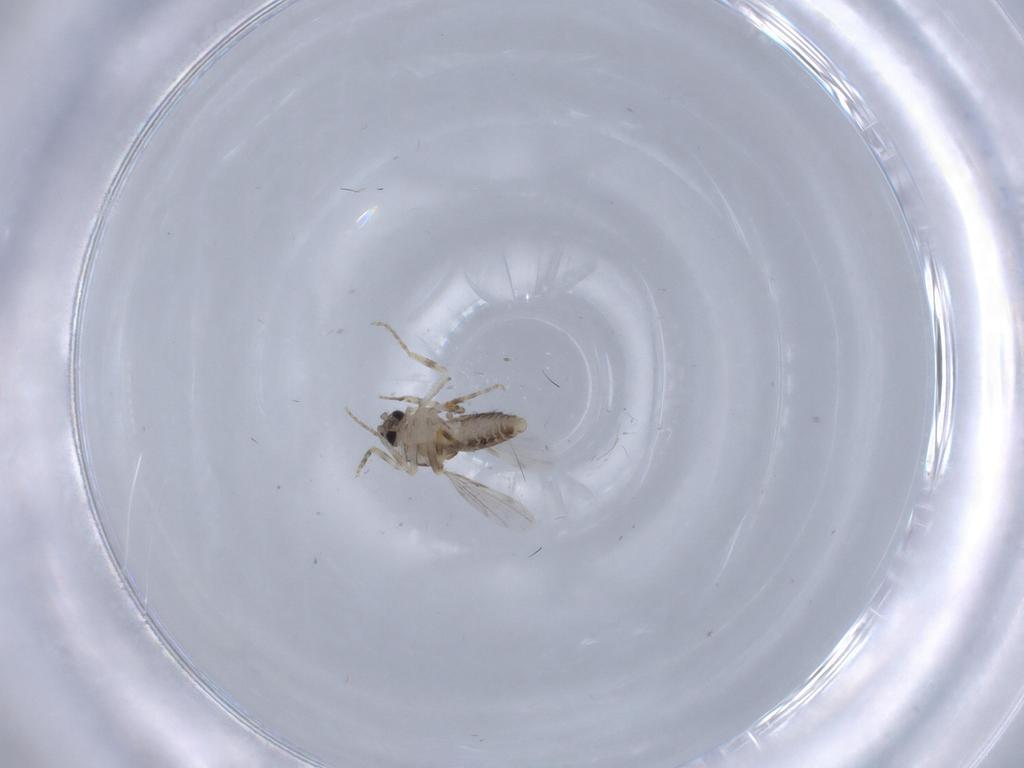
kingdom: Animalia
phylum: Arthropoda
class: Insecta
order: Diptera
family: Ceratopogonidae
